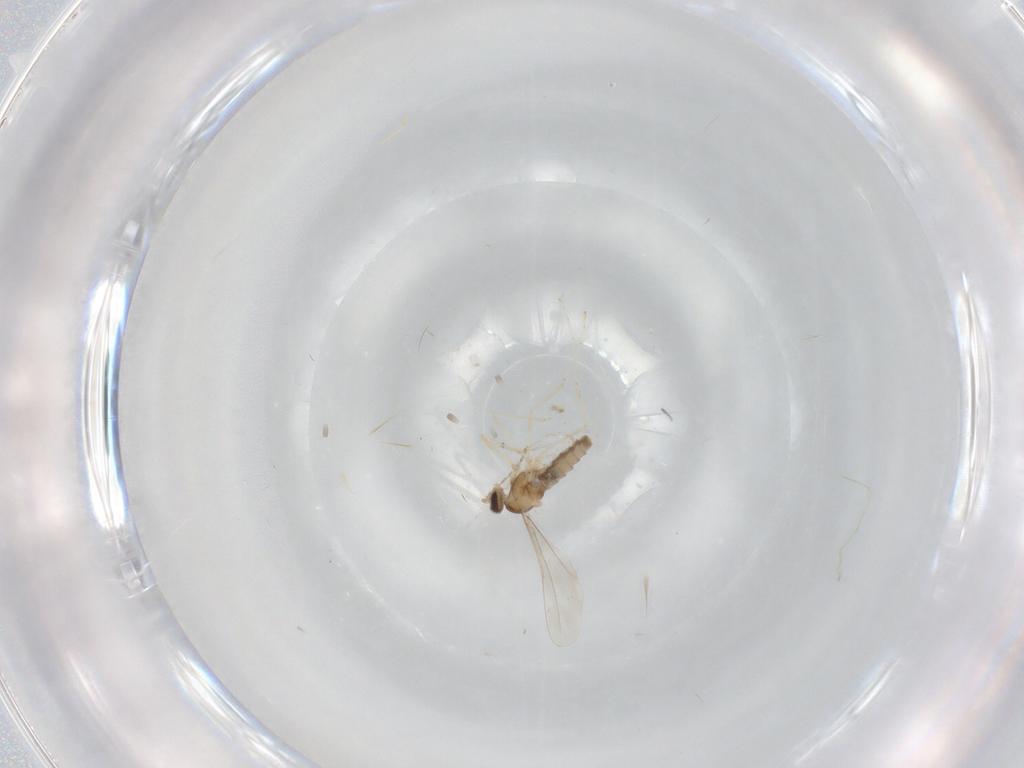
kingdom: Animalia
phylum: Arthropoda
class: Insecta
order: Diptera
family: Cecidomyiidae
